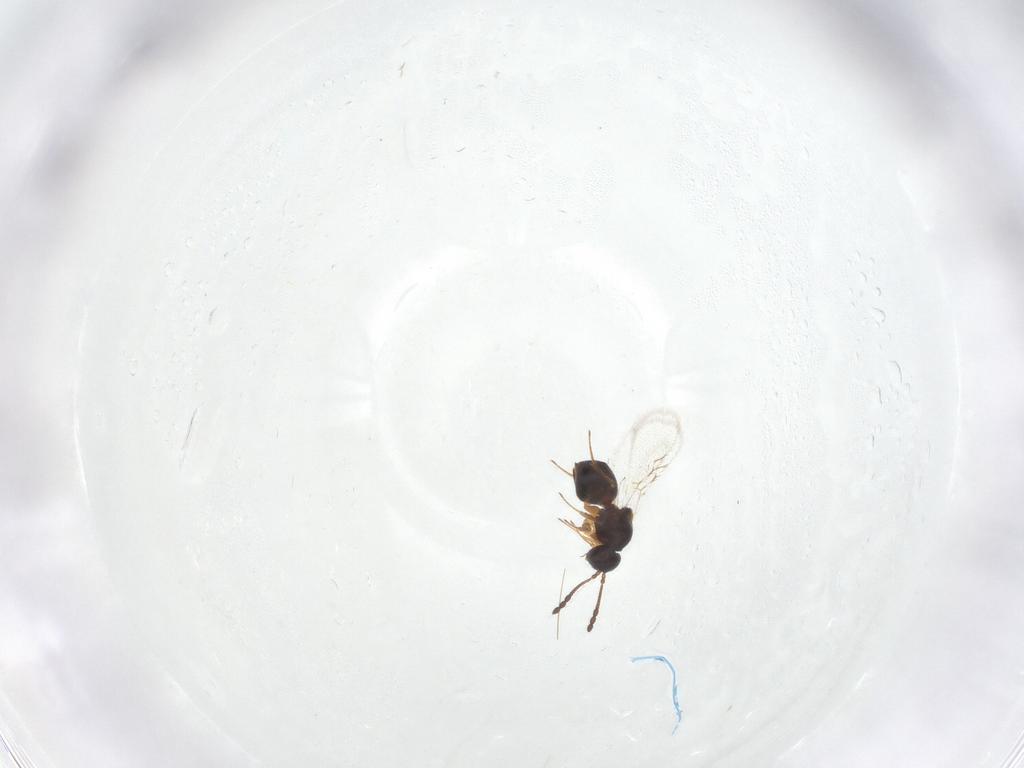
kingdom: Animalia
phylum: Arthropoda
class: Insecta
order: Hymenoptera
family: Figitidae
